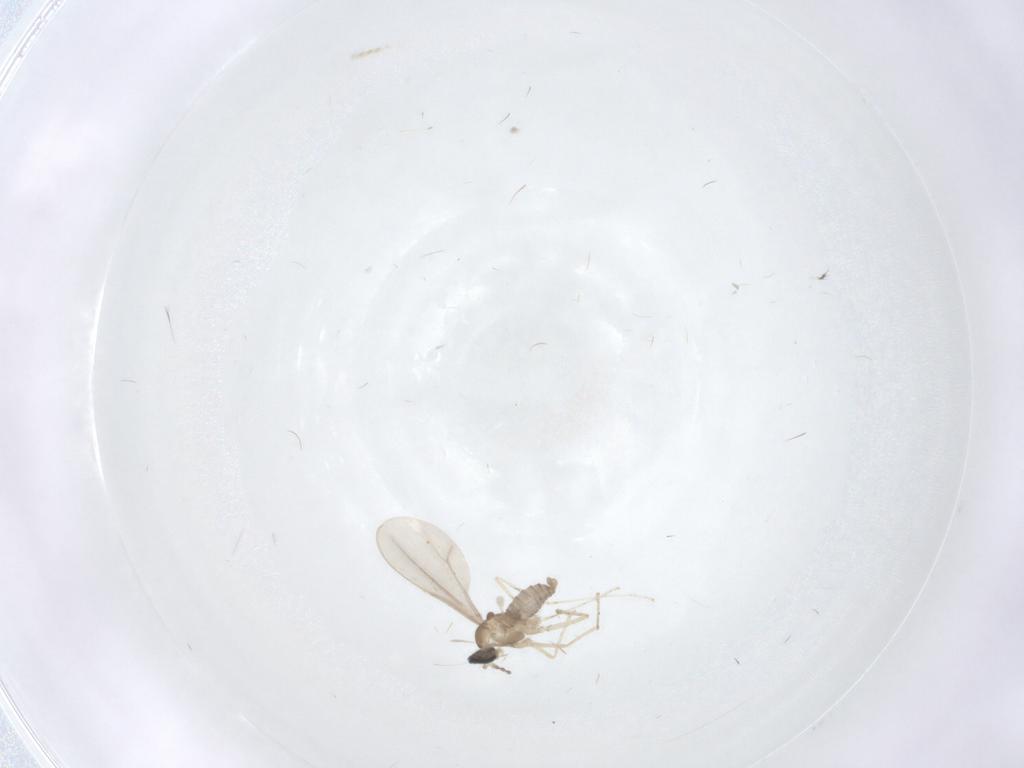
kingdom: Animalia
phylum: Arthropoda
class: Insecta
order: Diptera
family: Cecidomyiidae
